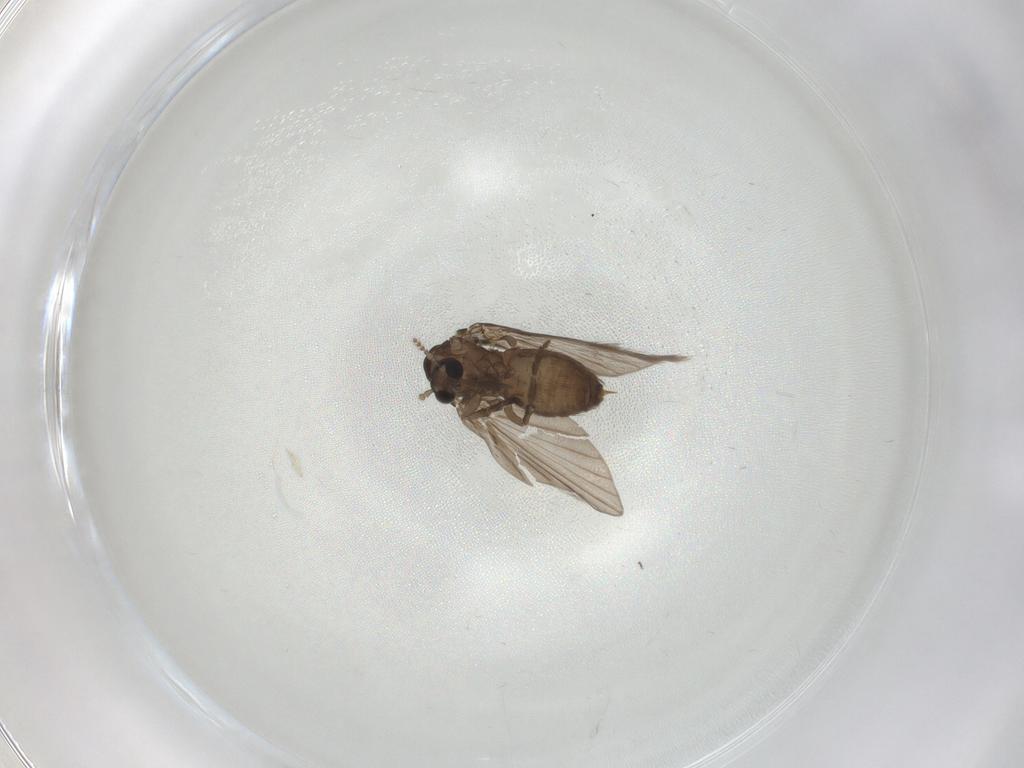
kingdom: Animalia
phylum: Arthropoda
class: Insecta
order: Diptera
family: Psychodidae
